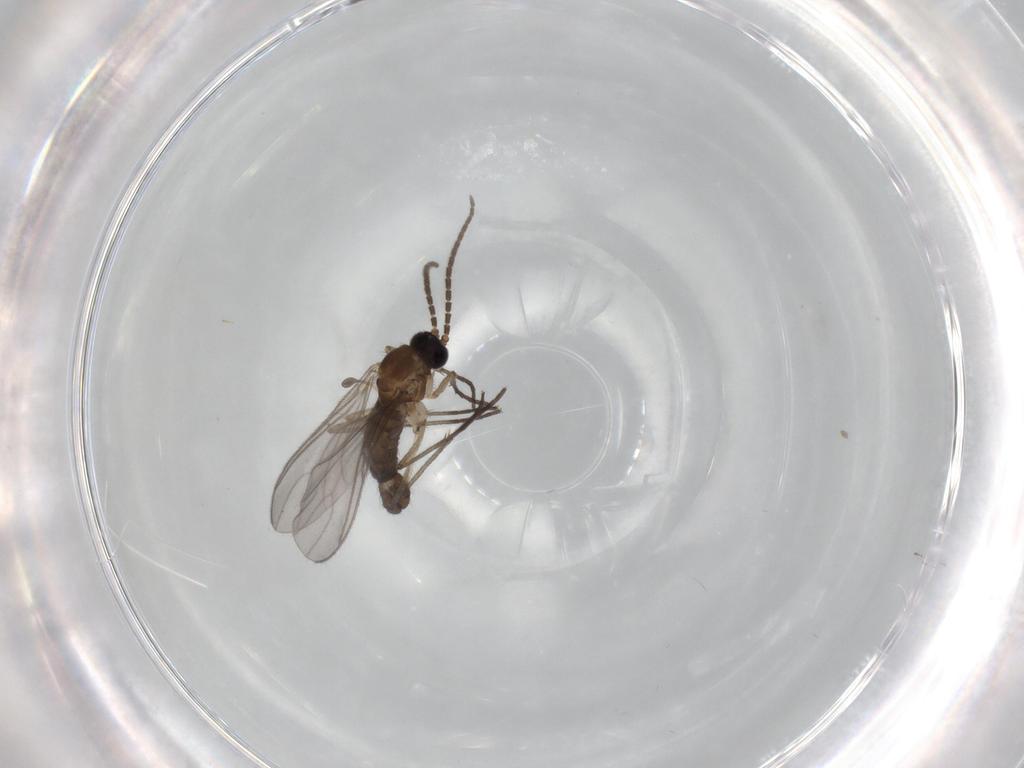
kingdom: Animalia
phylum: Arthropoda
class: Insecta
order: Diptera
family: Sciaridae
